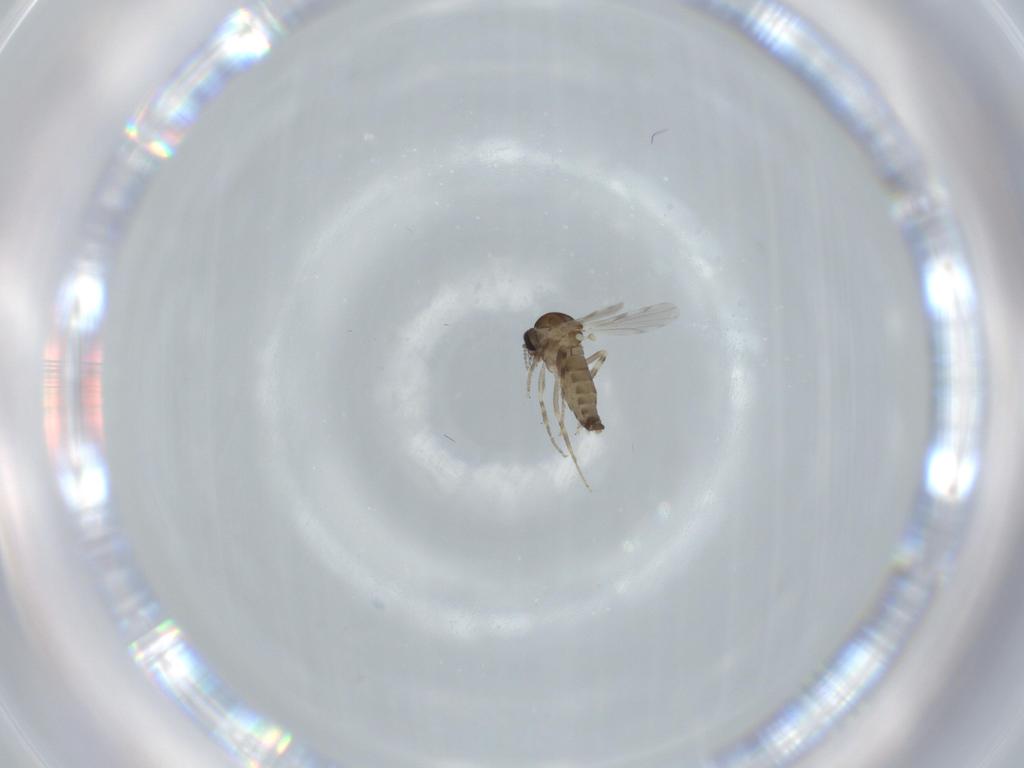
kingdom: Animalia
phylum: Arthropoda
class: Insecta
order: Diptera
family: Ceratopogonidae
